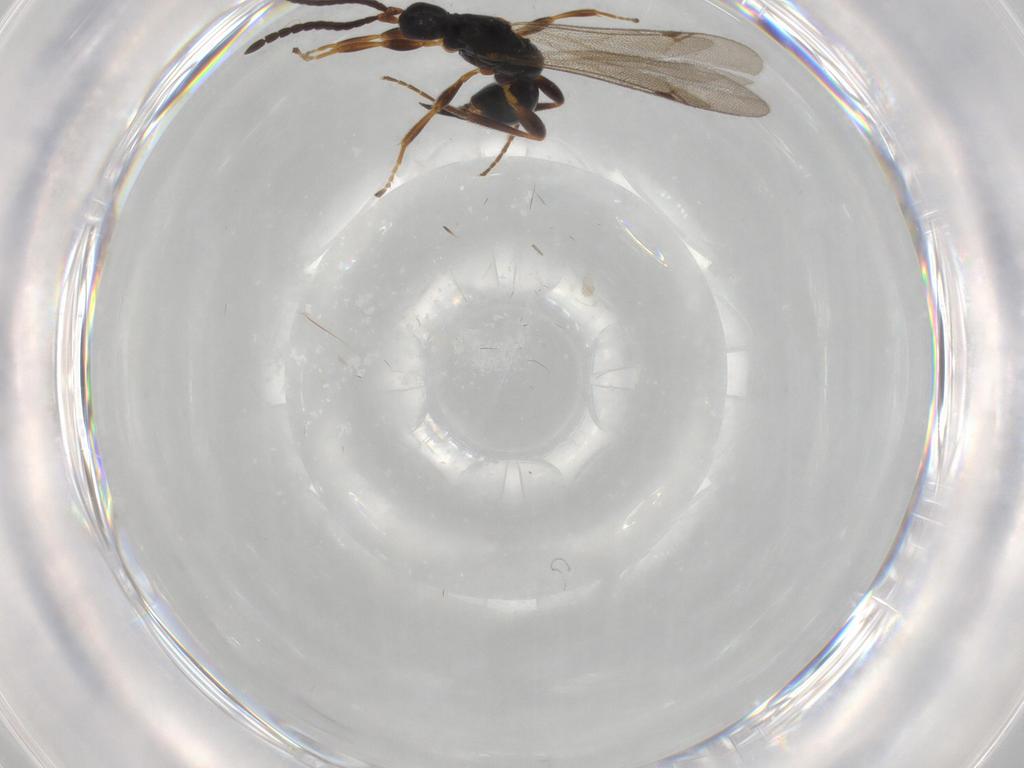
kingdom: Animalia
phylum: Arthropoda
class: Insecta
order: Hymenoptera
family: Proctotrupidae
